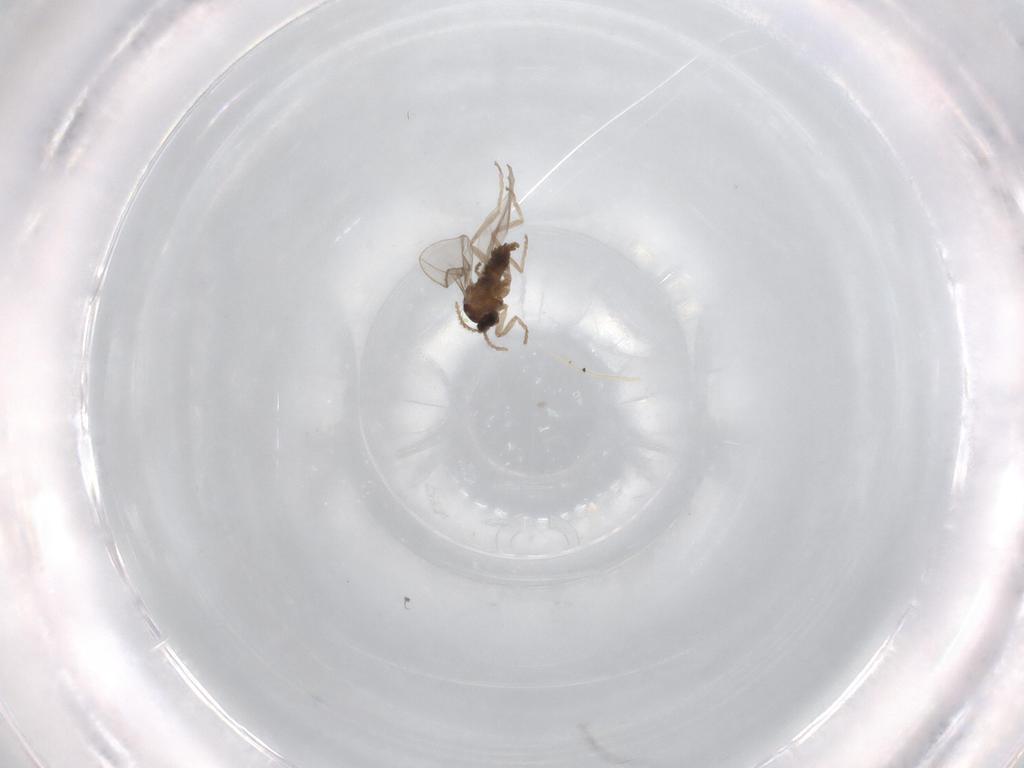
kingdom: Animalia
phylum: Arthropoda
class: Insecta
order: Diptera
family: Cecidomyiidae
